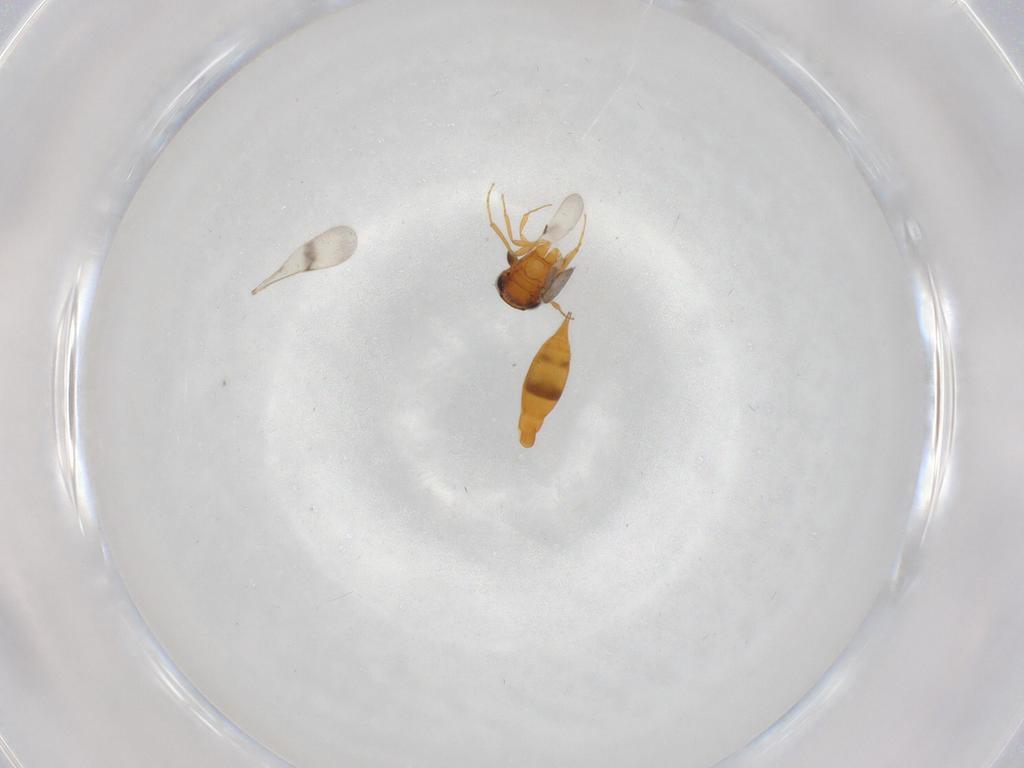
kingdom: Animalia
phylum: Arthropoda
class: Insecta
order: Hymenoptera
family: Scelionidae
